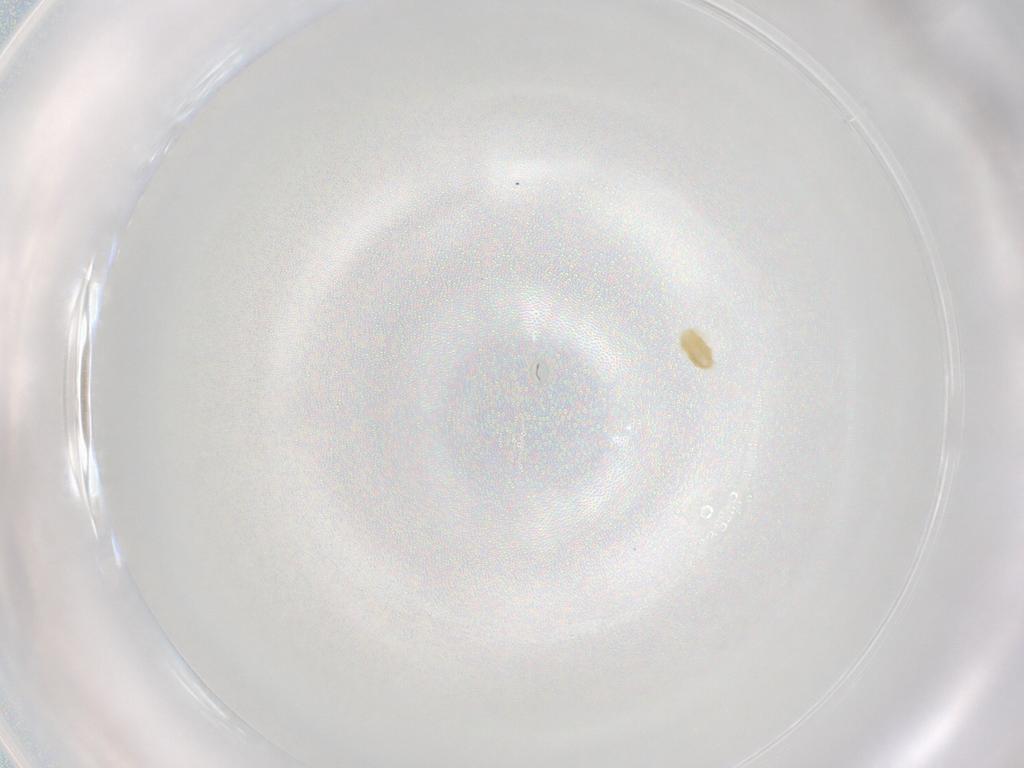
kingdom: Animalia
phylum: Arthropoda
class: Arachnida
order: Trombidiformes
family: Eupodidae
